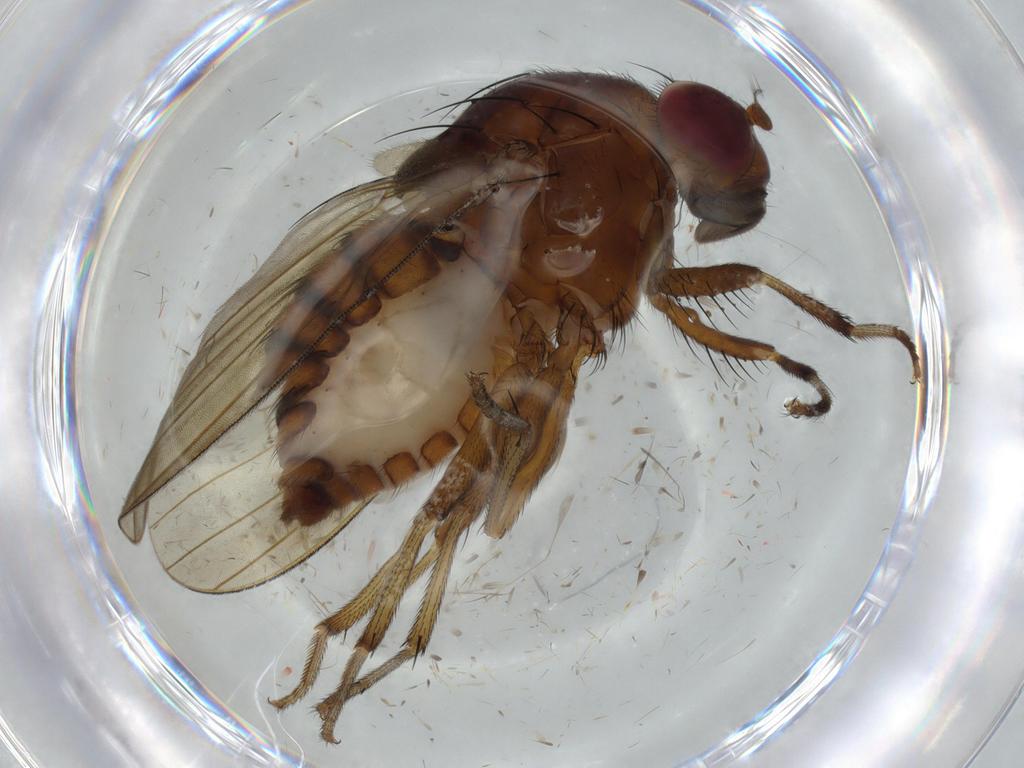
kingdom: Animalia
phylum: Arthropoda
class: Insecta
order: Diptera
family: Phoridae
